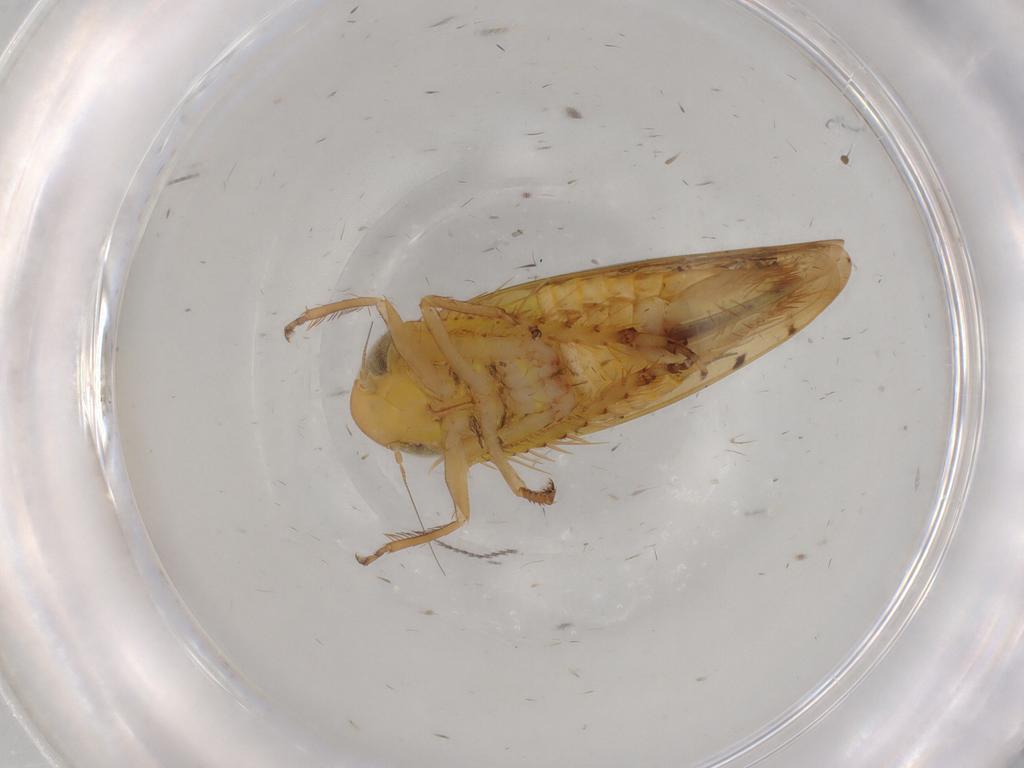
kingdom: Animalia
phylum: Arthropoda
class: Insecta
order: Hemiptera
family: Cicadellidae
